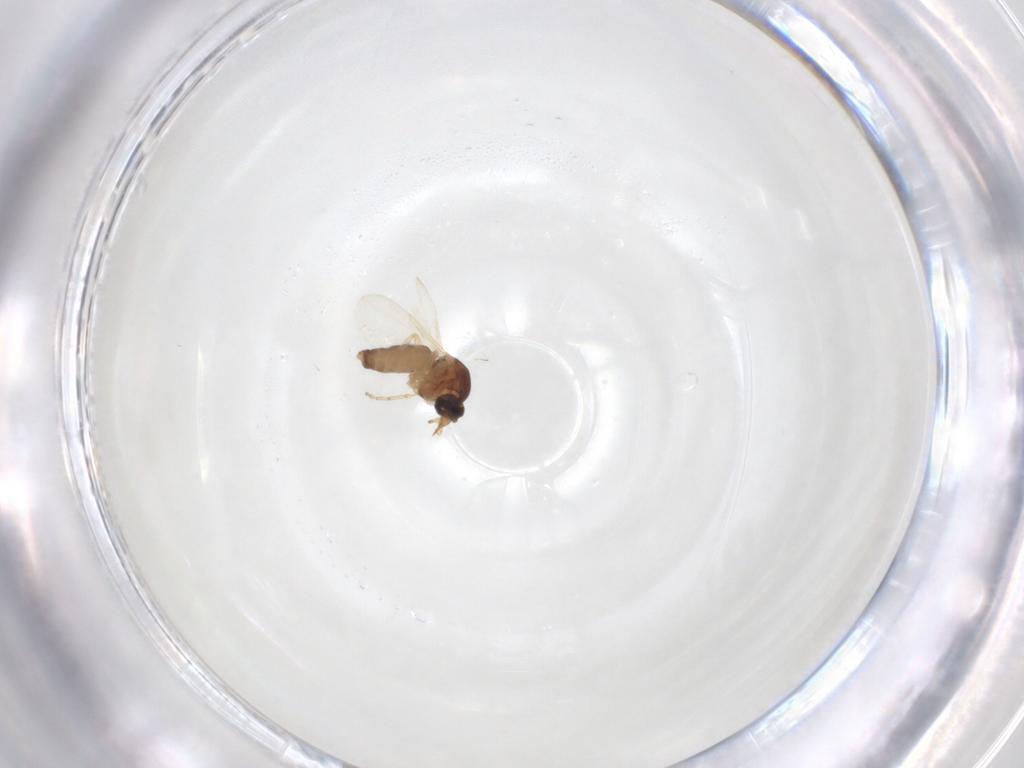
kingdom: Animalia
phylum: Arthropoda
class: Insecta
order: Diptera
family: Ceratopogonidae
